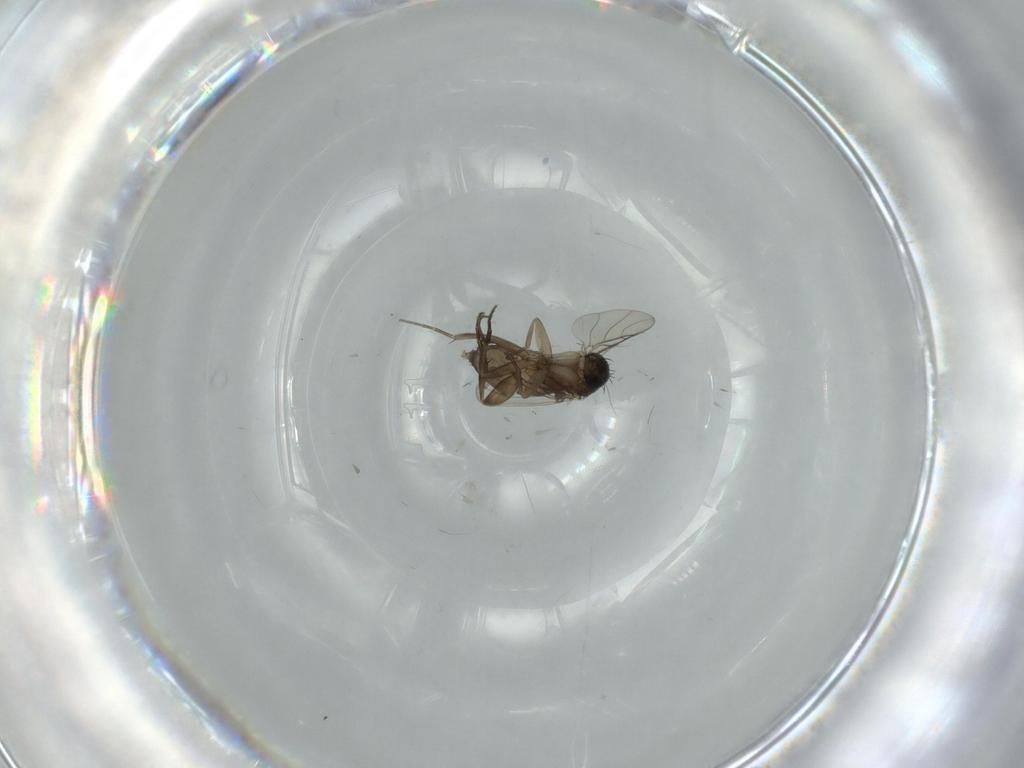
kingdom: Animalia
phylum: Arthropoda
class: Insecta
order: Diptera
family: Phoridae
